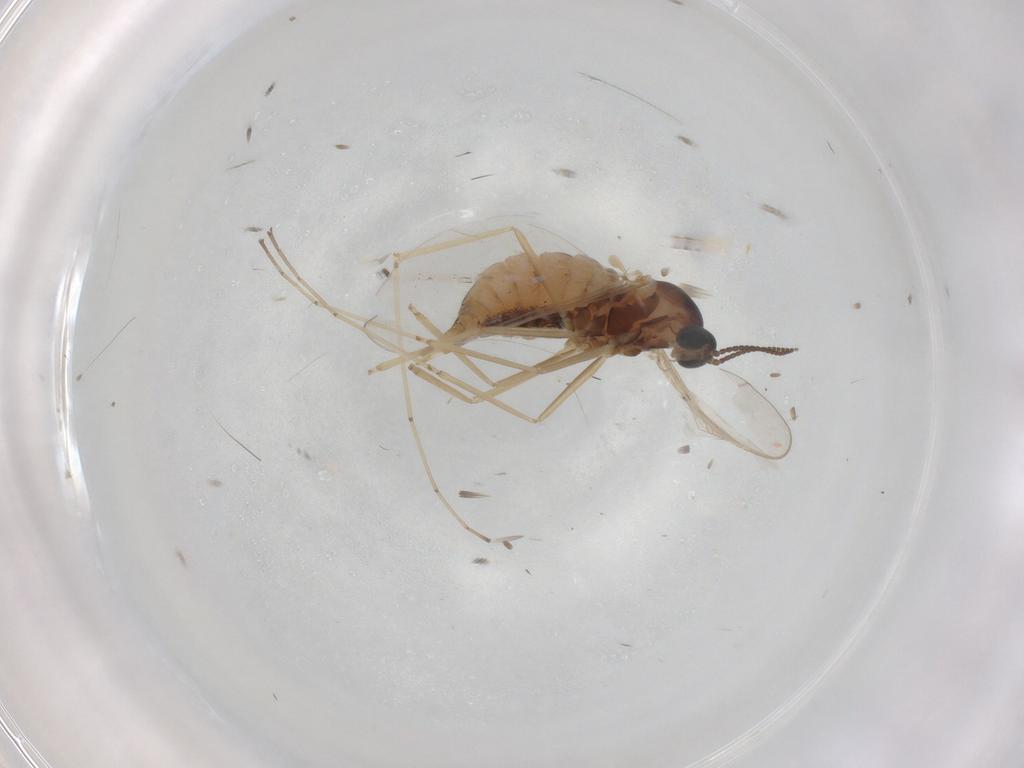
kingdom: Animalia
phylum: Arthropoda
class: Insecta
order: Diptera
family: Cecidomyiidae
